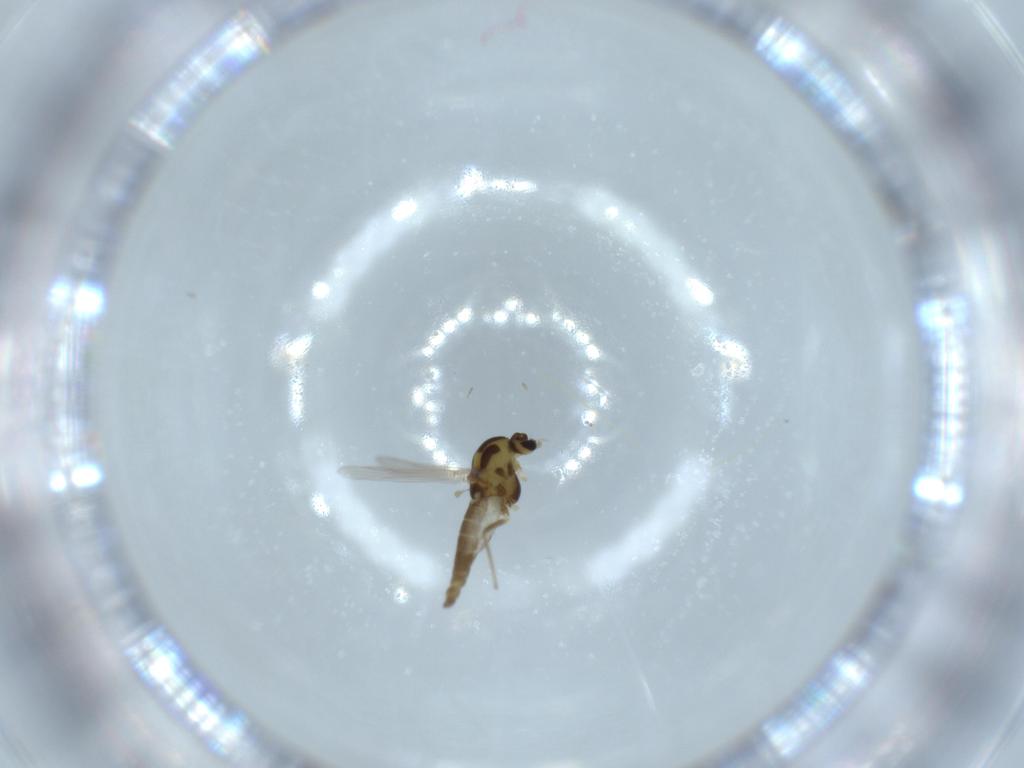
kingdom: Animalia
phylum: Arthropoda
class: Insecta
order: Diptera
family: Chironomidae
